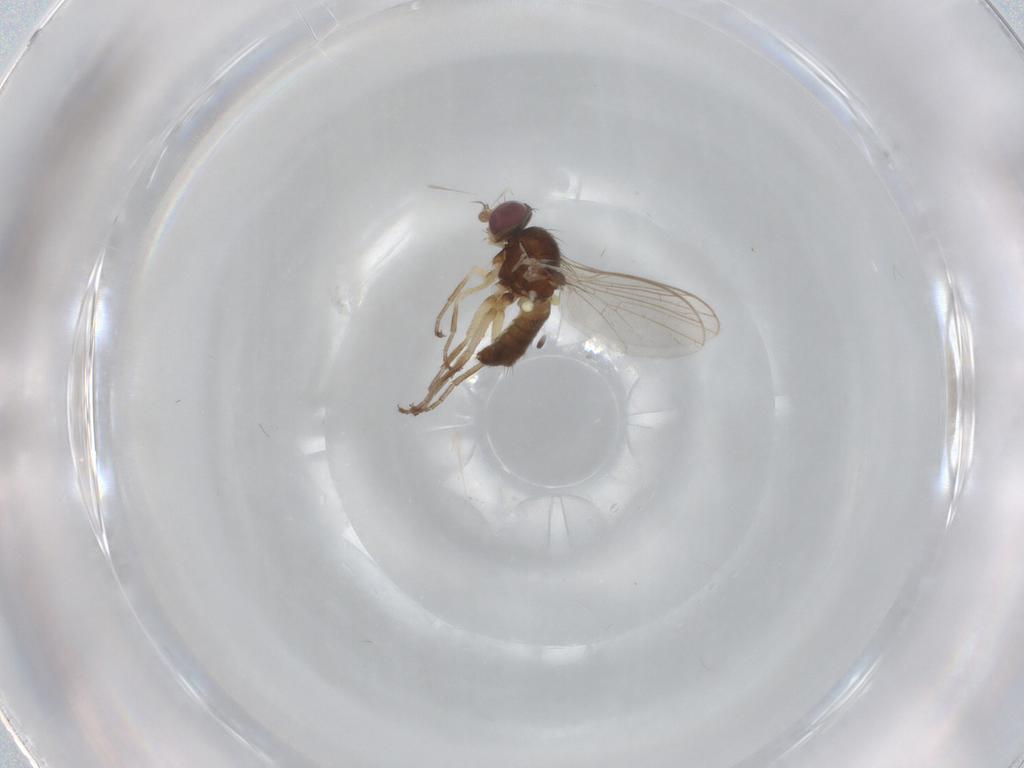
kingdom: Animalia
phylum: Arthropoda
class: Insecta
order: Diptera
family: Agromyzidae
